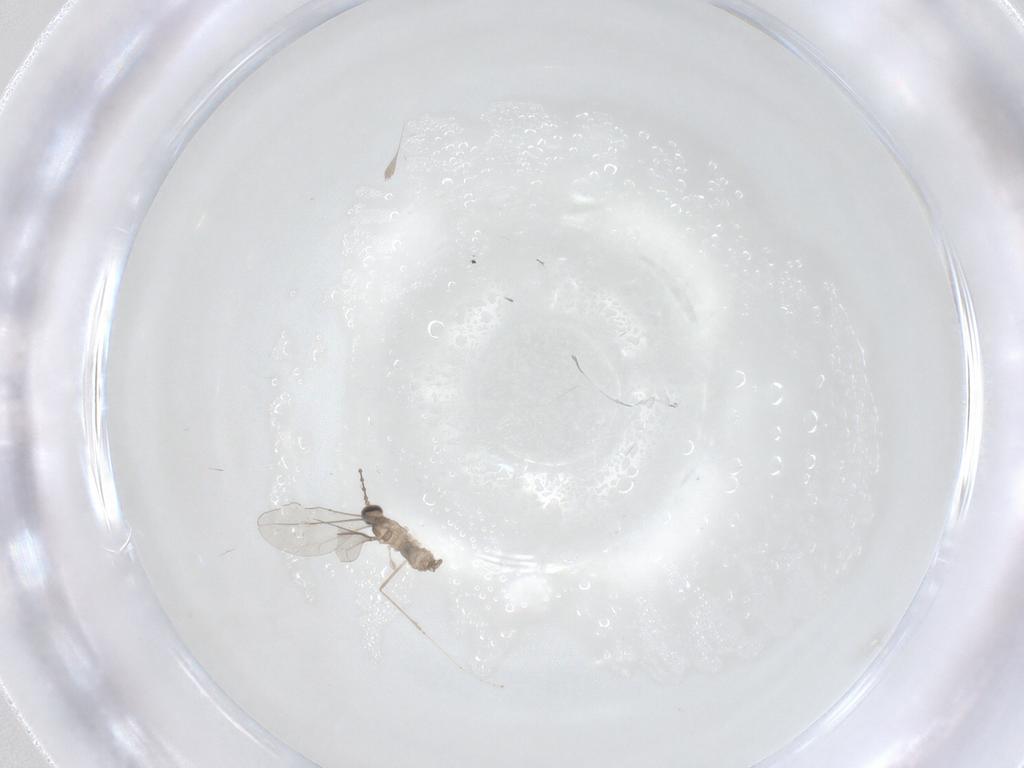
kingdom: Animalia
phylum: Arthropoda
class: Insecta
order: Diptera
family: Cecidomyiidae
